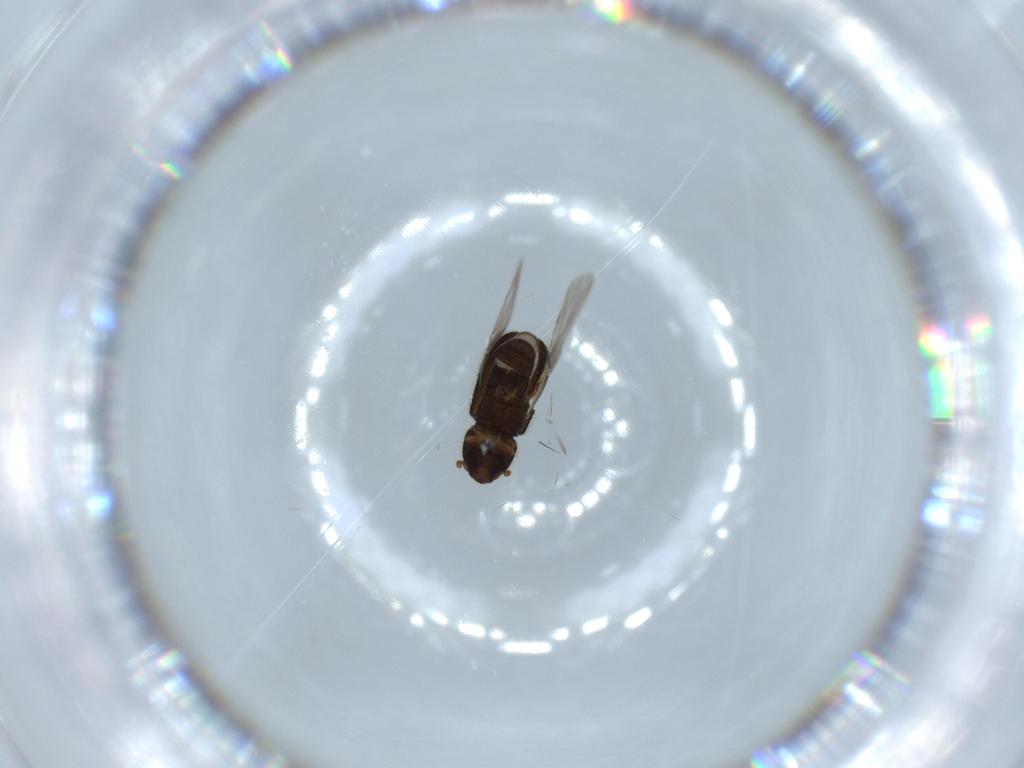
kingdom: Animalia
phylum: Arthropoda
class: Insecta
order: Coleoptera
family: Curculionidae
